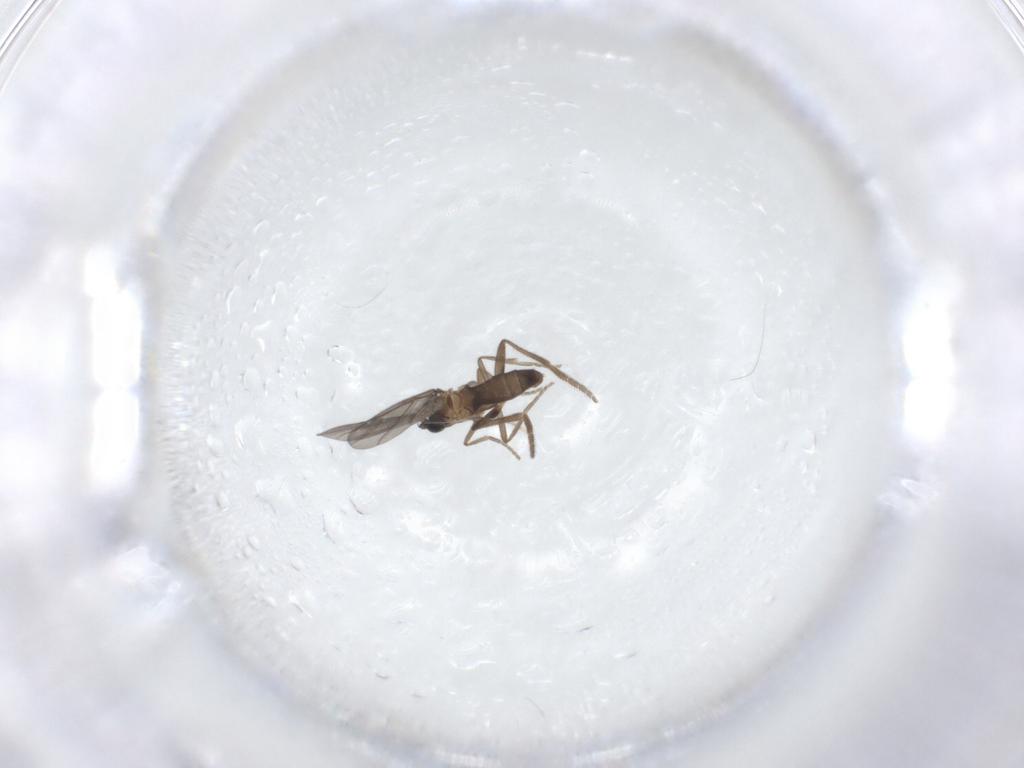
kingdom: Animalia
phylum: Arthropoda
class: Insecta
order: Diptera
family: Phoridae
